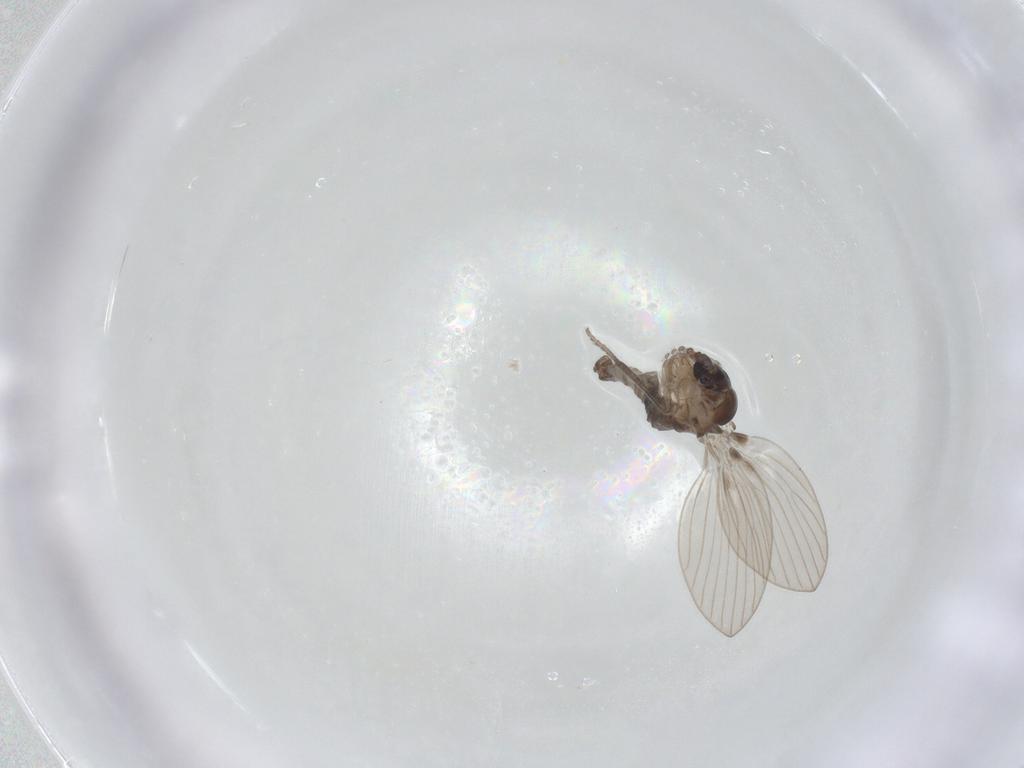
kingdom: Animalia
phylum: Arthropoda
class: Insecta
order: Diptera
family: Psychodidae
